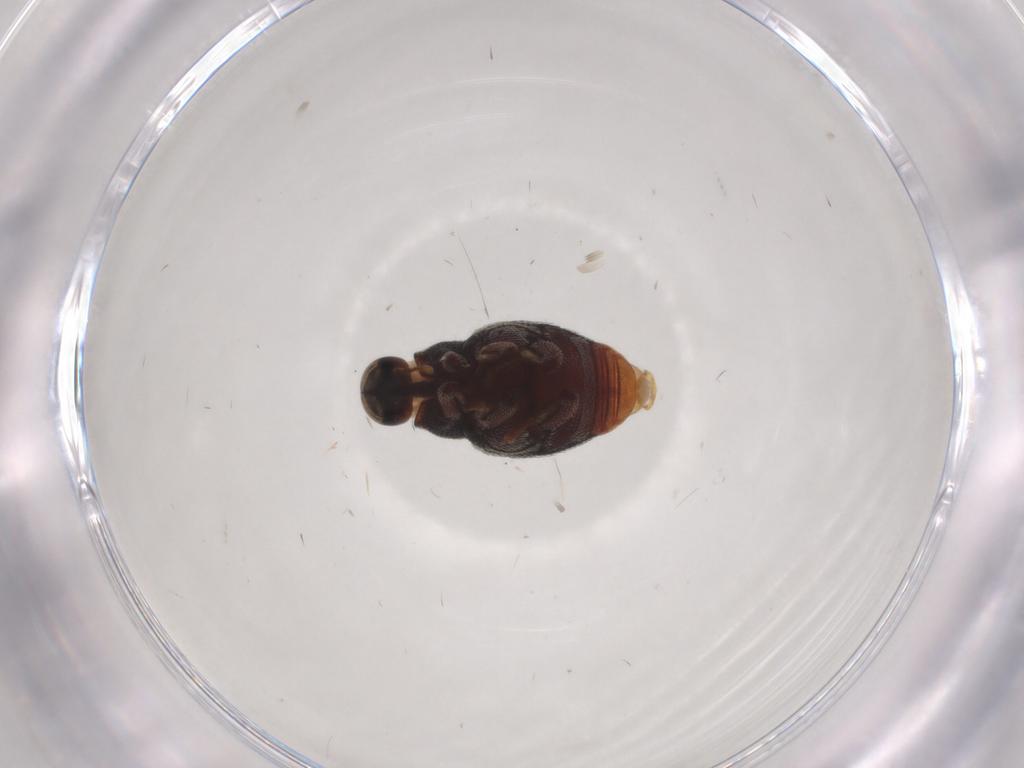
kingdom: Animalia
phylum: Arthropoda
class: Insecta
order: Coleoptera
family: Curculionidae
